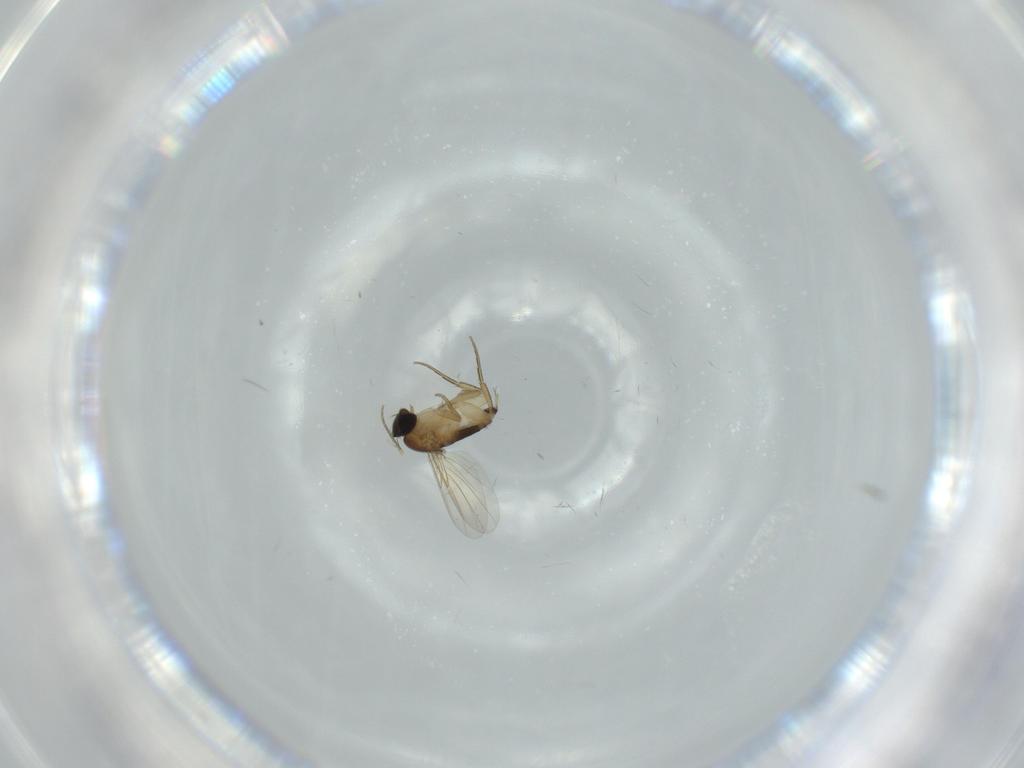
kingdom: Animalia
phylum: Arthropoda
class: Insecta
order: Diptera
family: Phoridae
